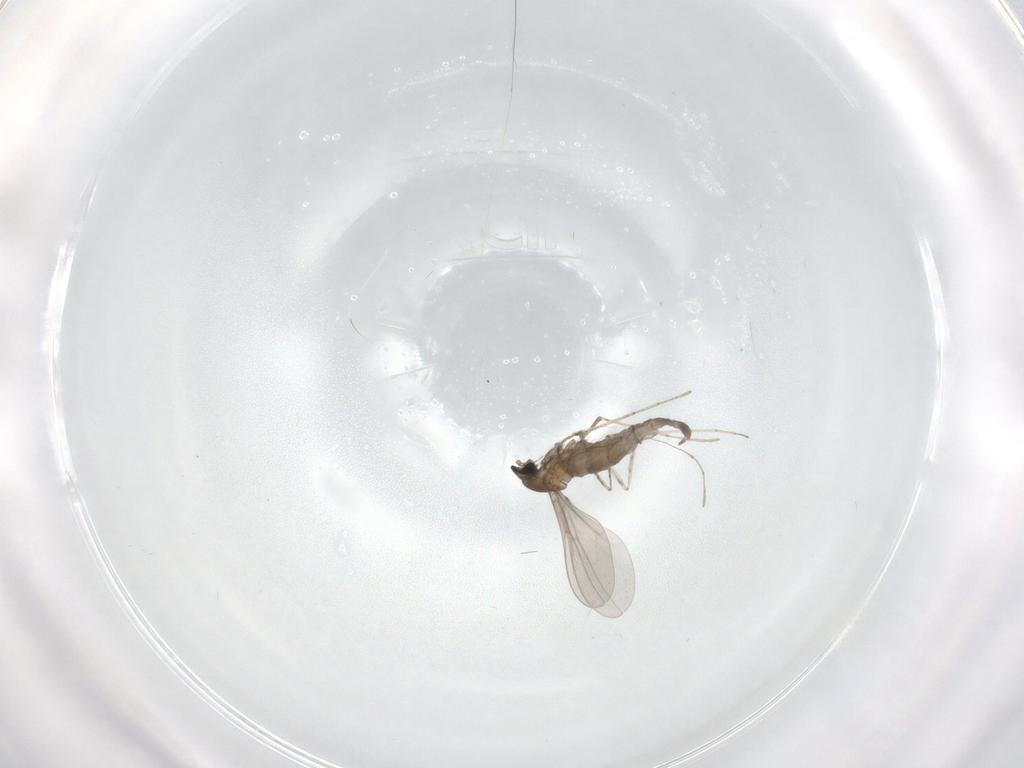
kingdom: Animalia
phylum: Arthropoda
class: Insecta
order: Diptera
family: Cecidomyiidae
